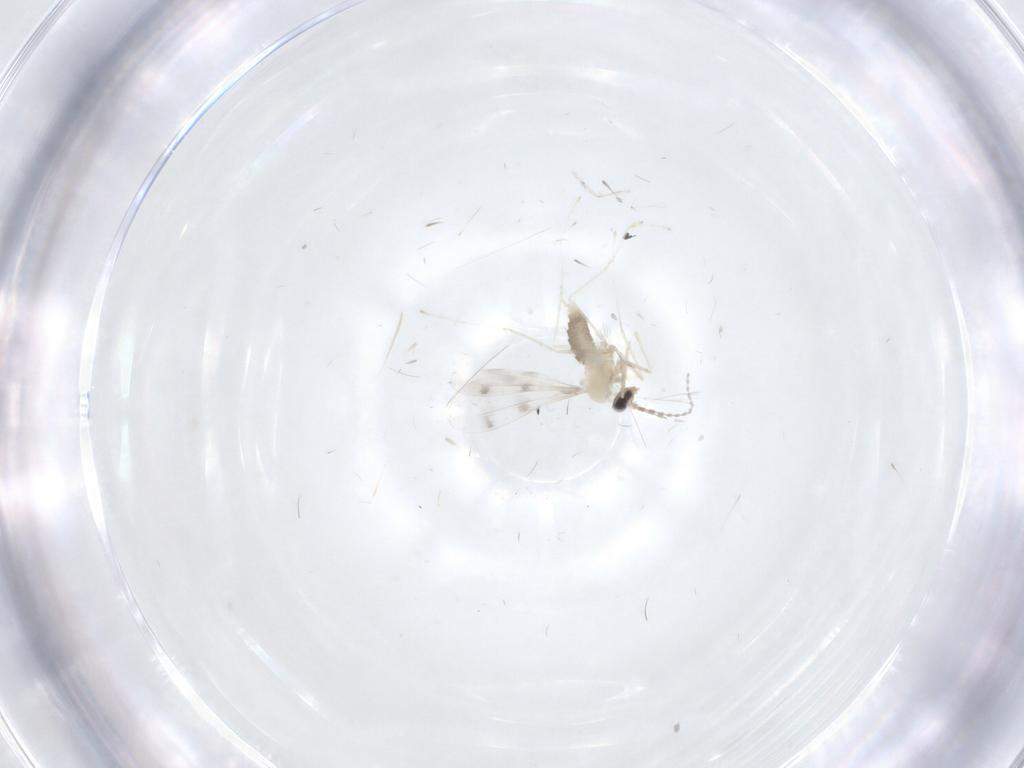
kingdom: Animalia
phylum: Arthropoda
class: Insecta
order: Diptera
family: Cecidomyiidae
